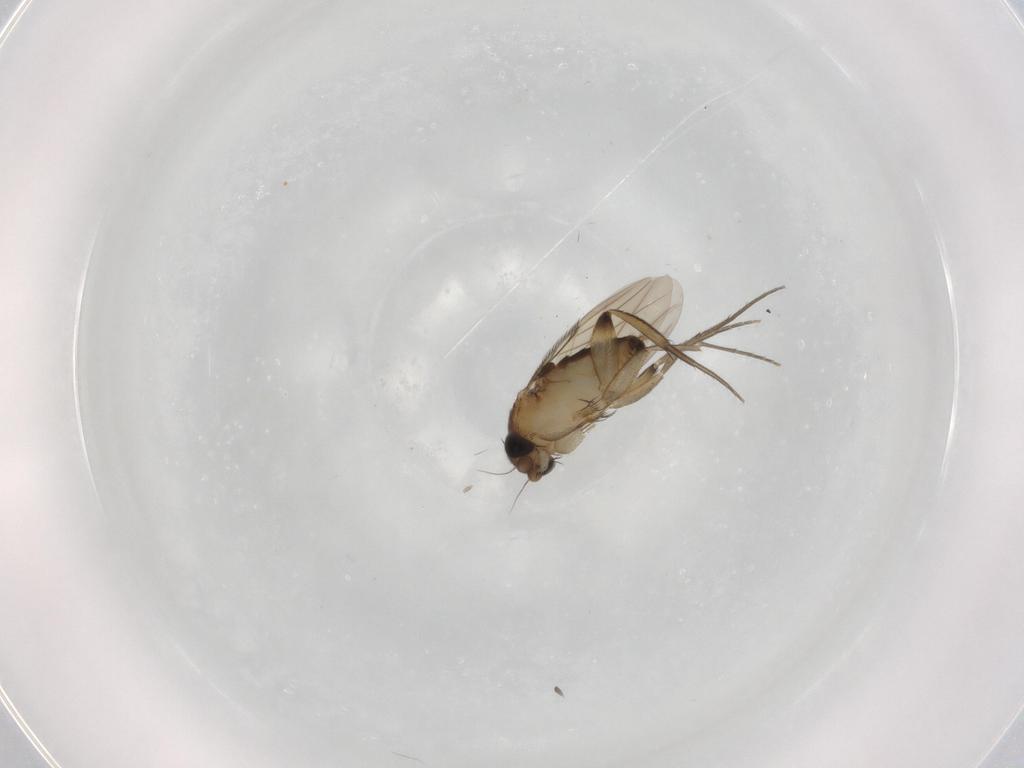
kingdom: Animalia
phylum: Arthropoda
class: Insecta
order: Diptera
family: Phoridae
